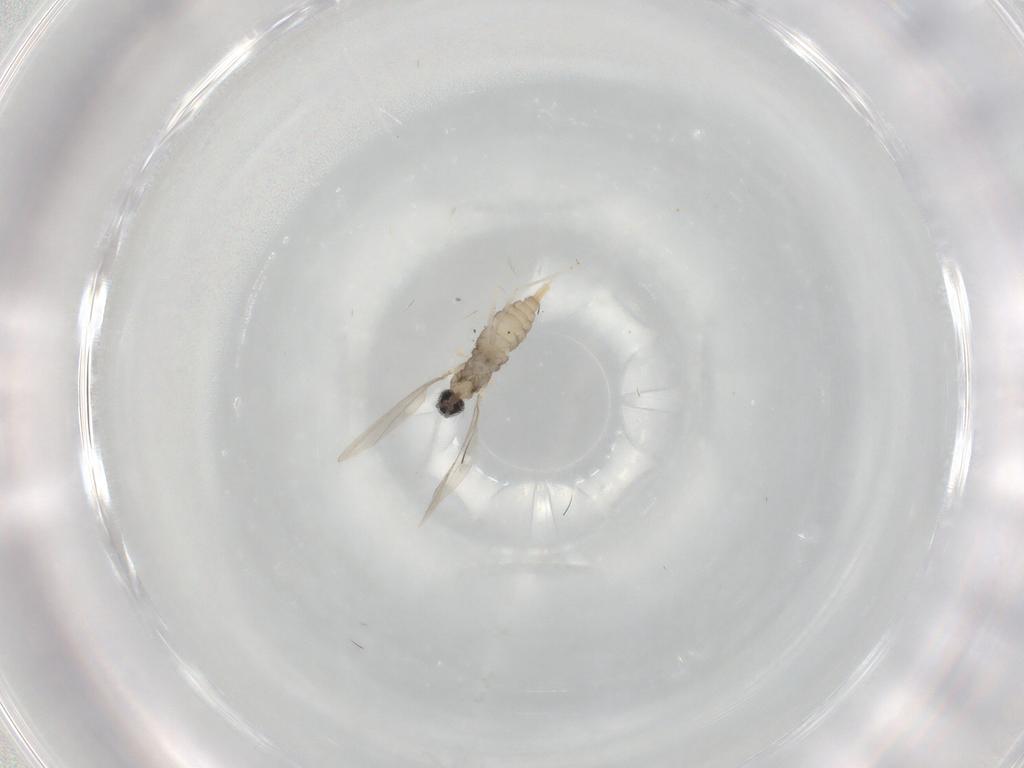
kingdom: Animalia
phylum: Arthropoda
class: Insecta
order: Diptera
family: Cecidomyiidae
